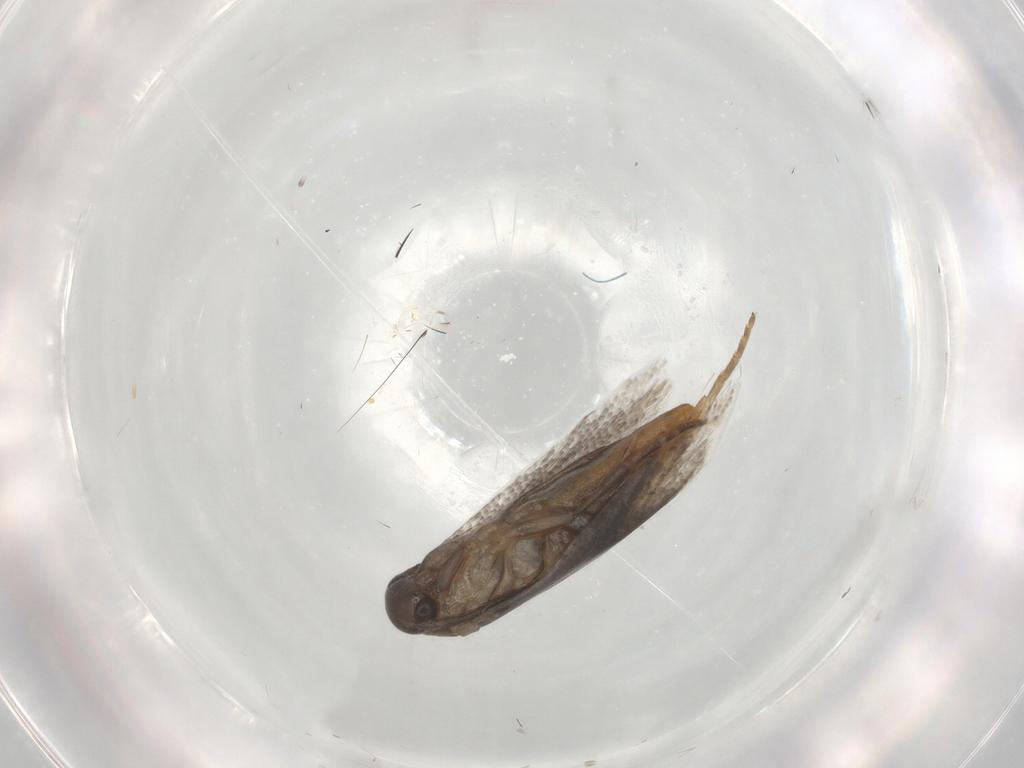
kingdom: Animalia
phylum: Arthropoda
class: Insecta
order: Lepidoptera
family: Elachistidae
